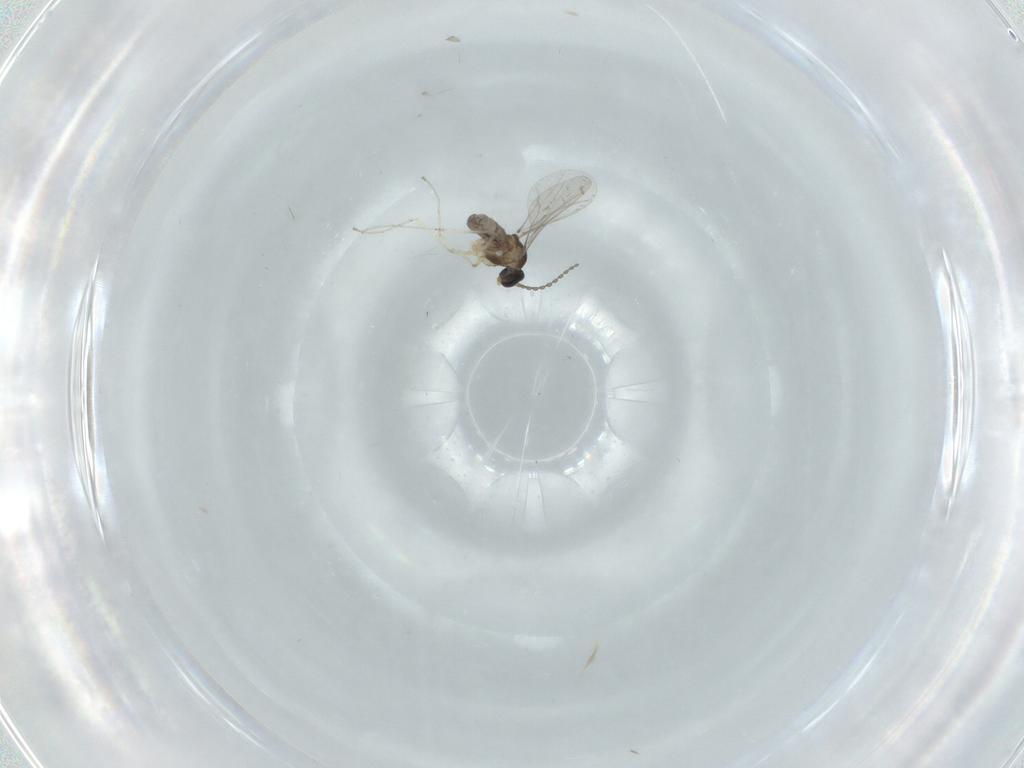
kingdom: Animalia
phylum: Arthropoda
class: Insecta
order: Diptera
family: Cecidomyiidae
